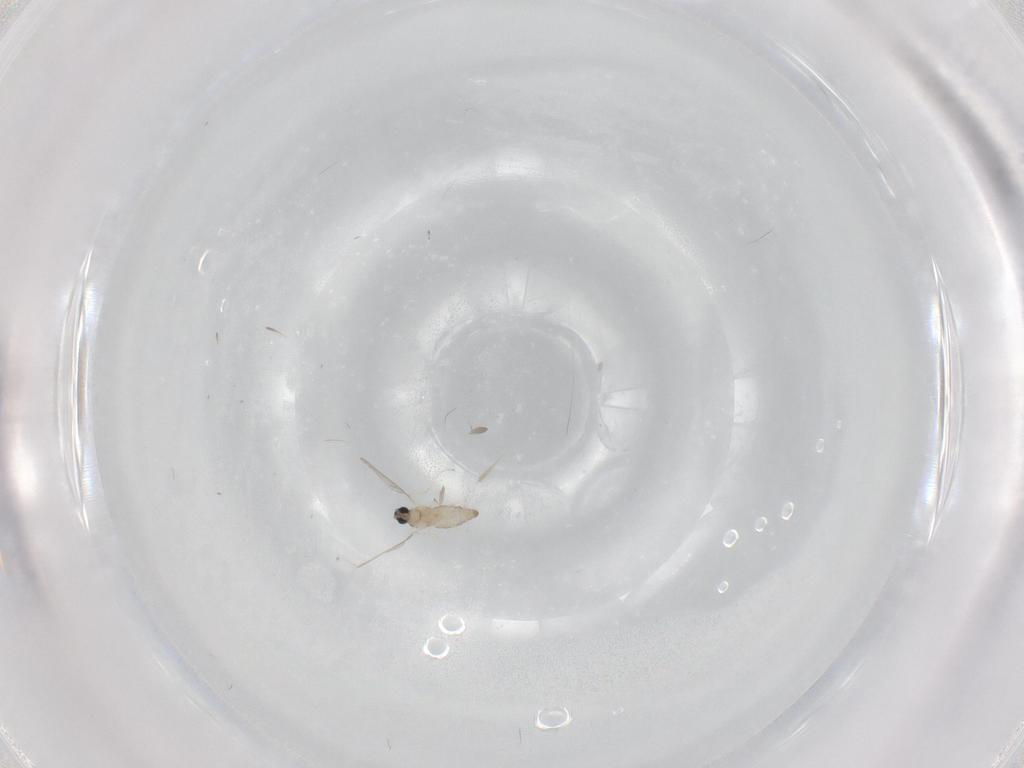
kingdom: Animalia
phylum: Arthropoda
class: Insecta
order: Diptera
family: Cecidomyiidae
